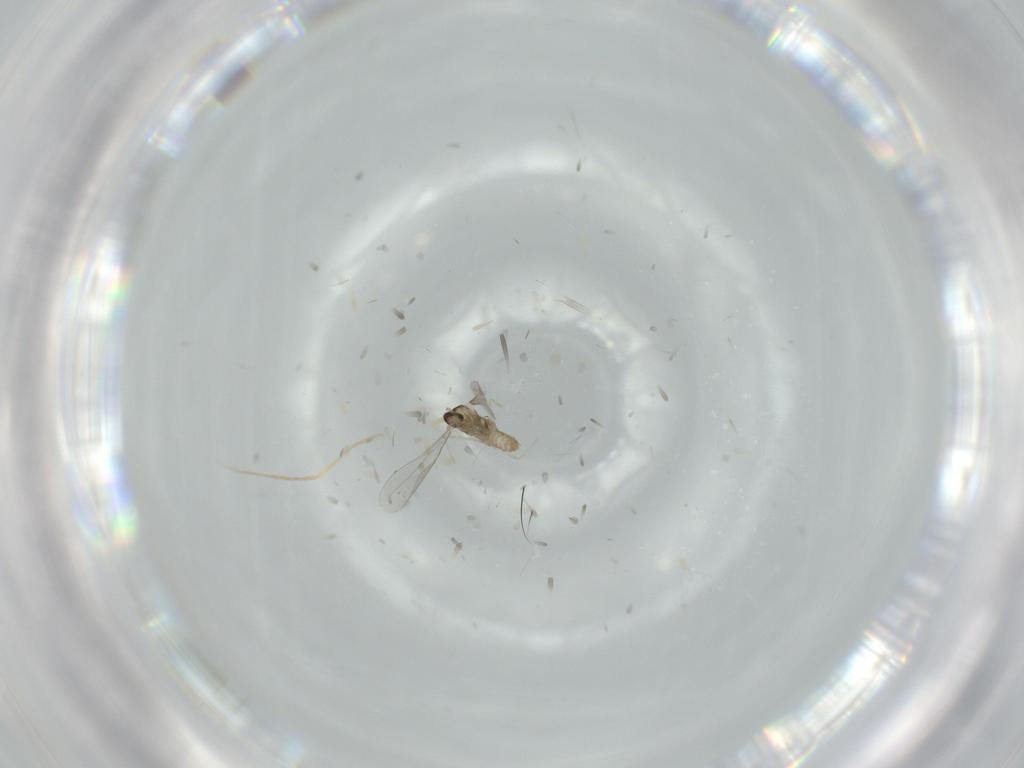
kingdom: Animalia
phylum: Arthropoda
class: Insecta
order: Diptera
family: Cecidomyiidae
